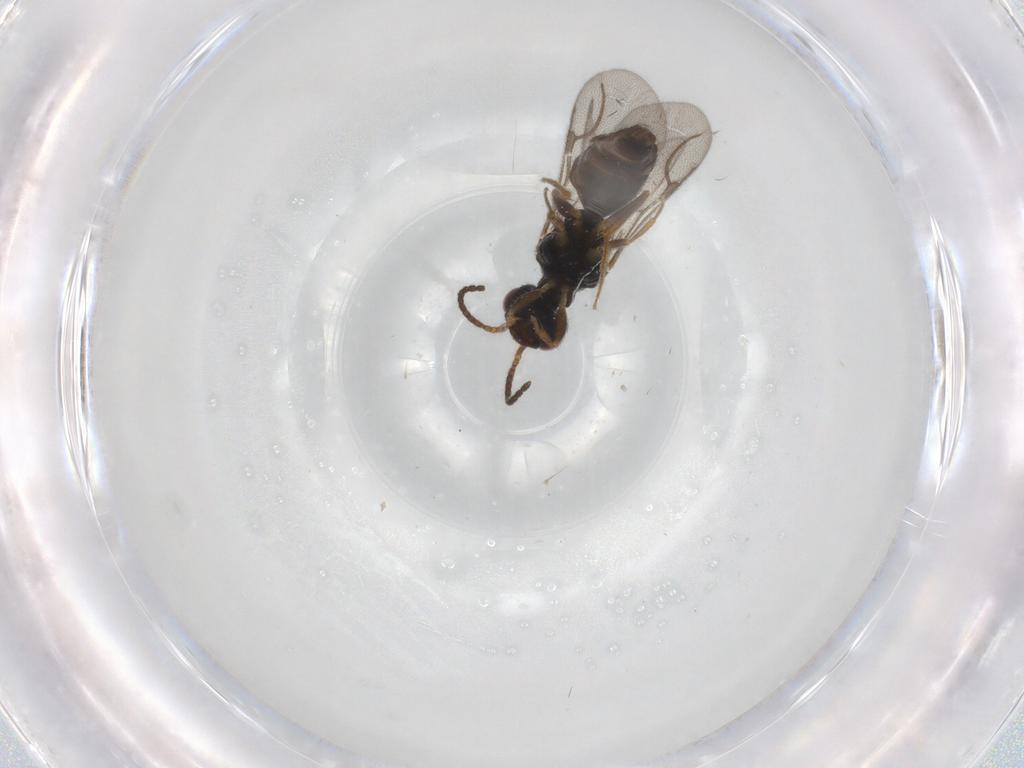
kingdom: Animalia
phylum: Arthropoda
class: Insecta
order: Hymenoptera
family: Bethylidae
